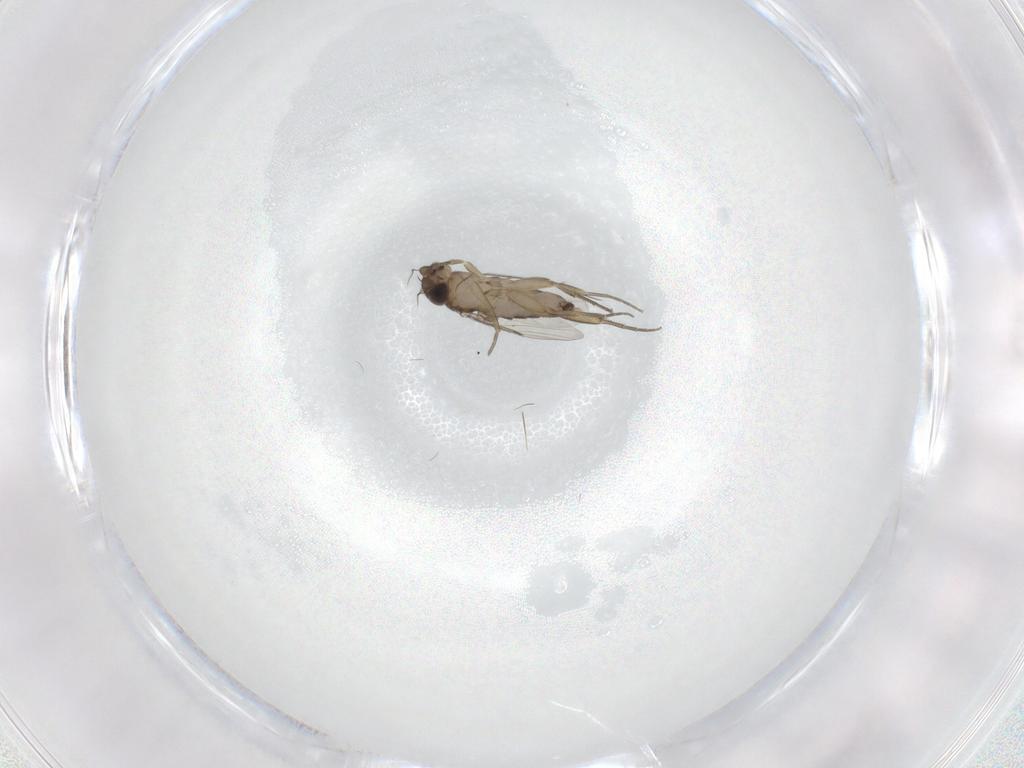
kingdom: Animalia
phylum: Arthropoda
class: Insecta
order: Diptera
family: Phoridae
